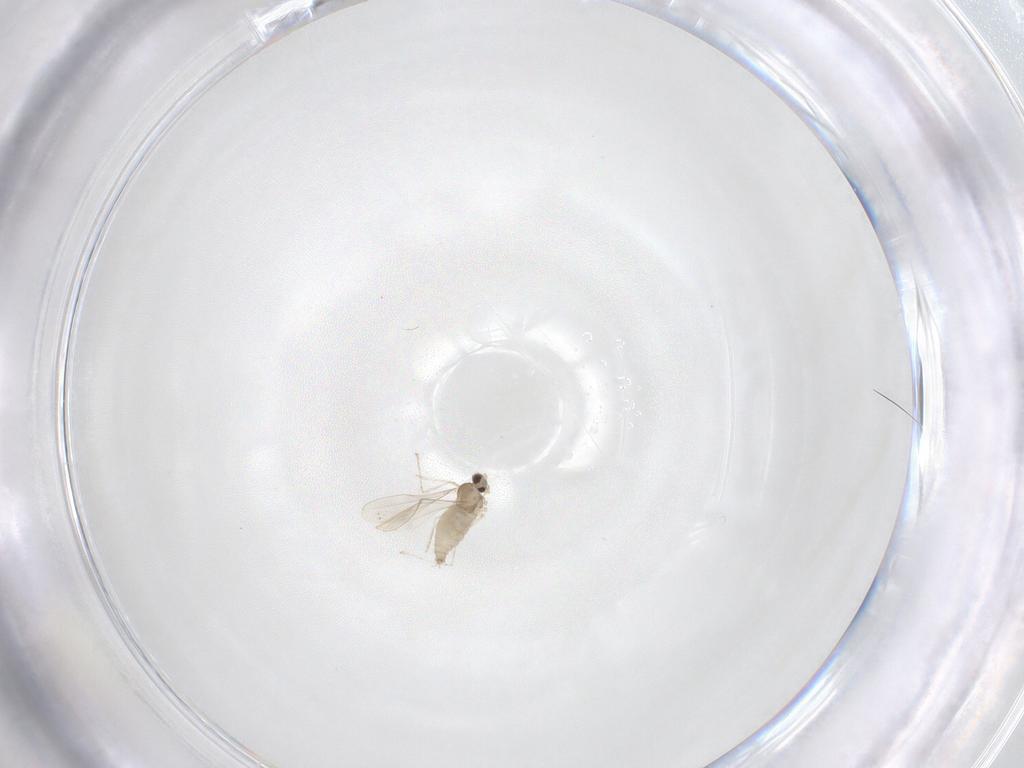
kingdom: Animalia
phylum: Arthropoda
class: Insecta
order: Diptera
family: Cecidomyiidae
